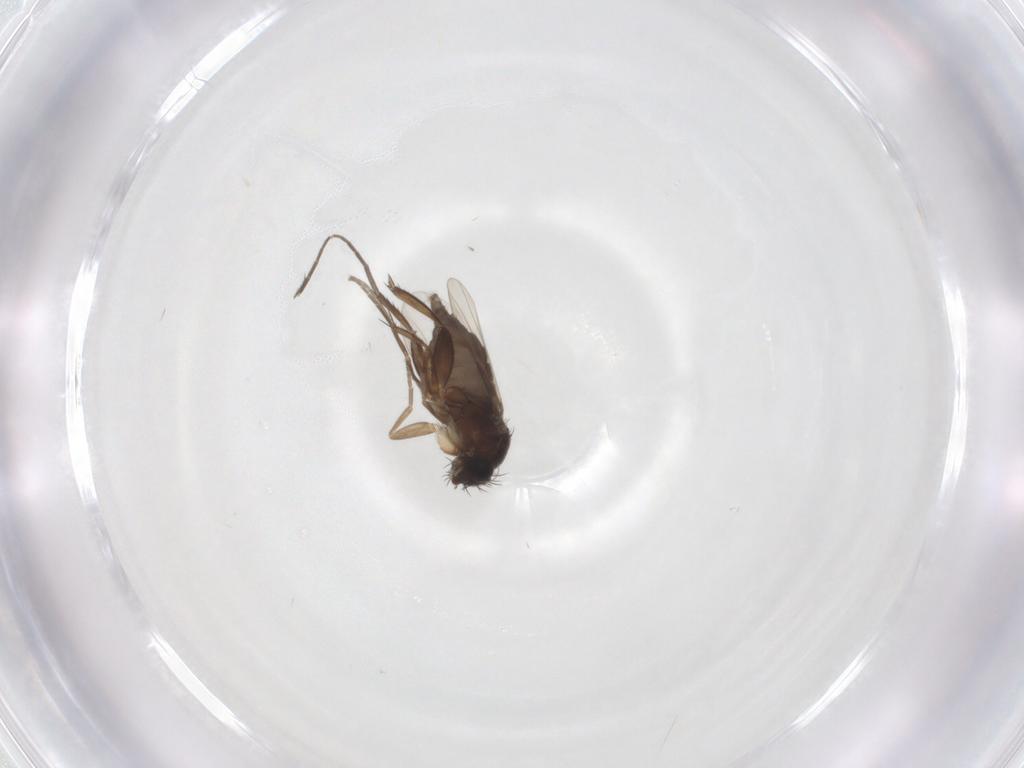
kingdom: Animalia
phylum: Arthropoda
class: Insecta
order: Diptera
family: Phoridae
